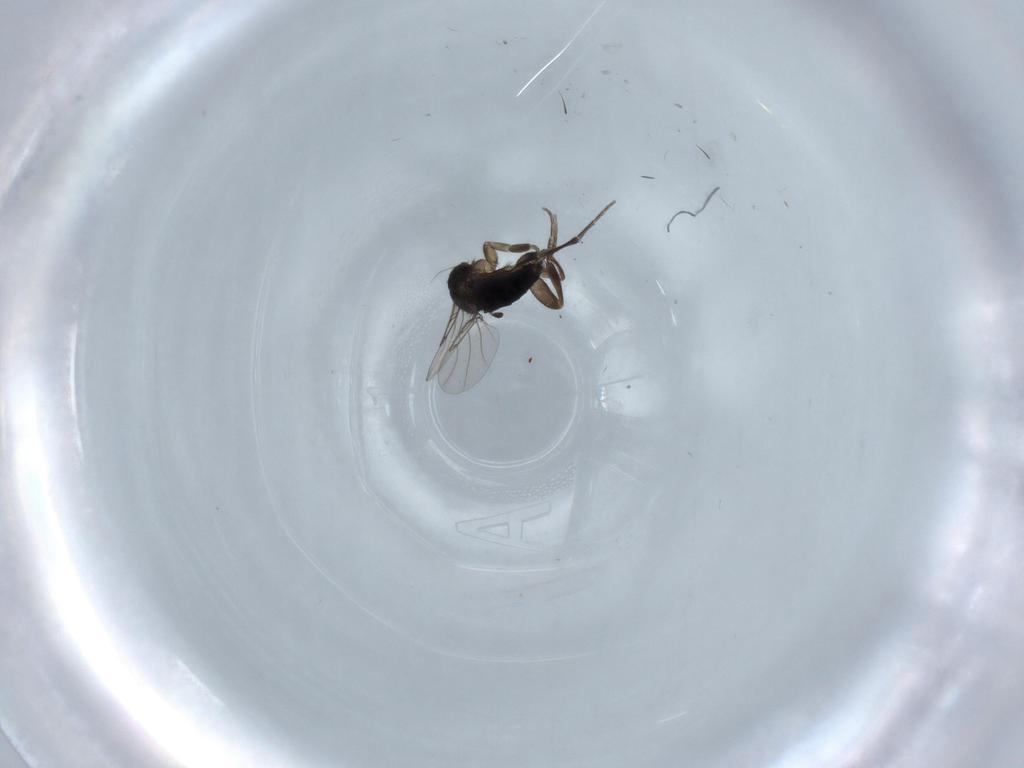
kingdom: Animalia
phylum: Arthropoda
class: Insecta
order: Diptera
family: Phoridae
